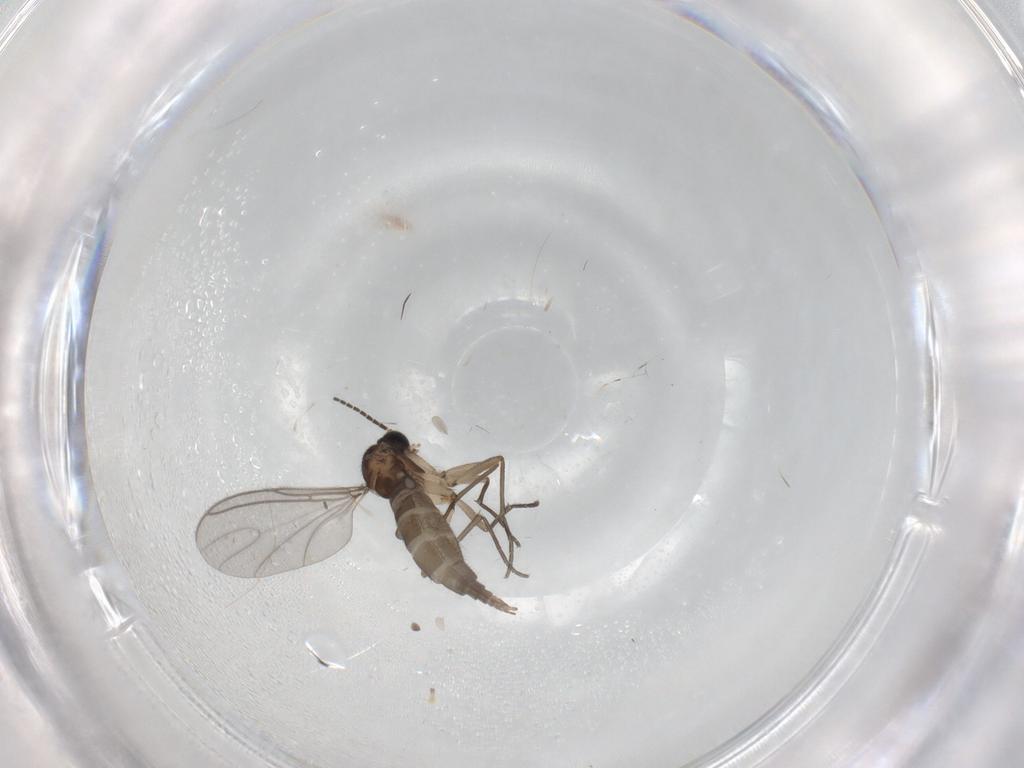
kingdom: Animalia
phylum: Arthropoda
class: Insecta
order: Diptera
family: Sciaridae
